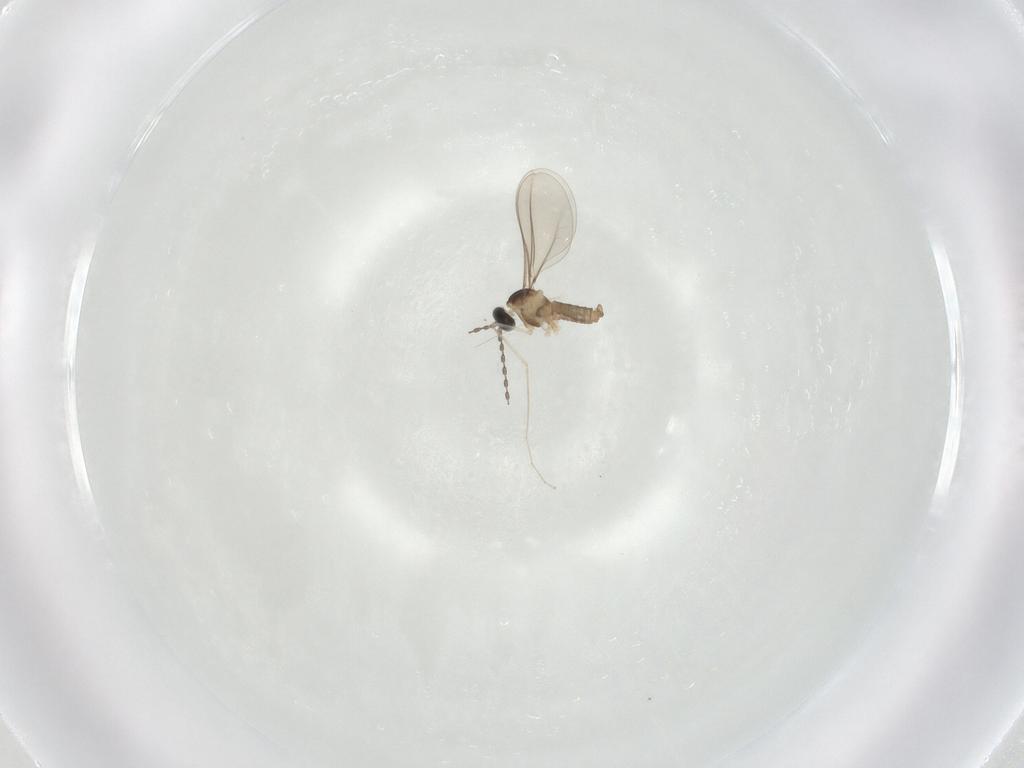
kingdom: Animalia
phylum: Arthropoda
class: Insecta
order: Diptera
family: Cecidomyiidae
